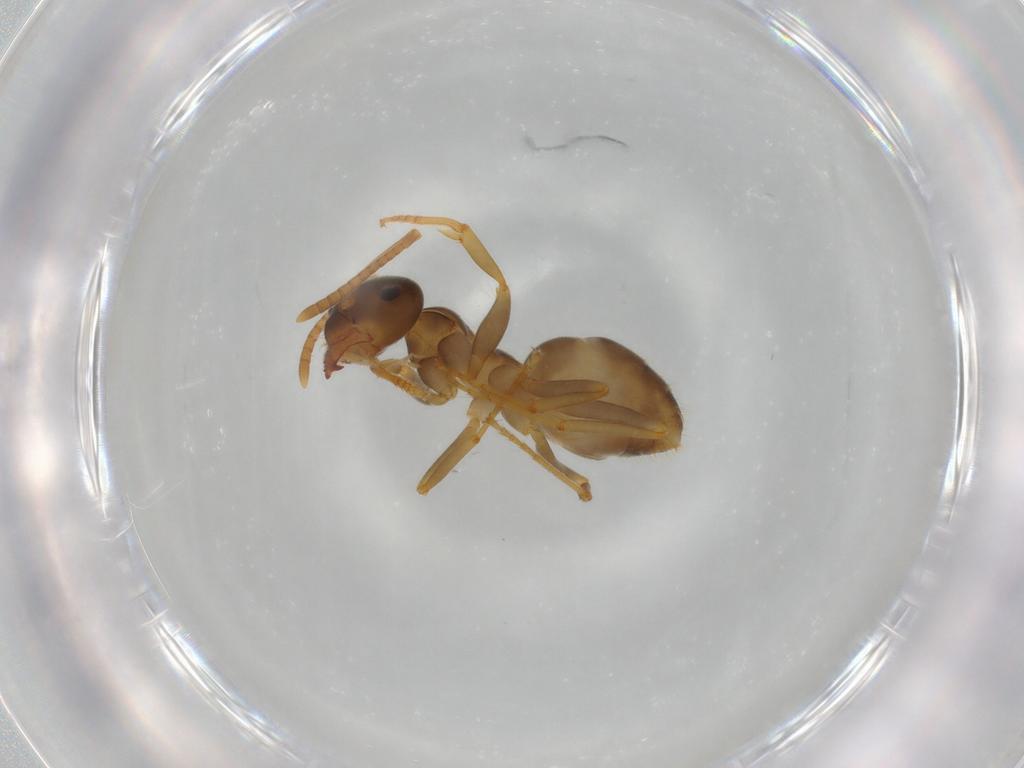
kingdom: Animalia
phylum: Arthropoda
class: Insecta
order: Hymenoptera
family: Formicidae
